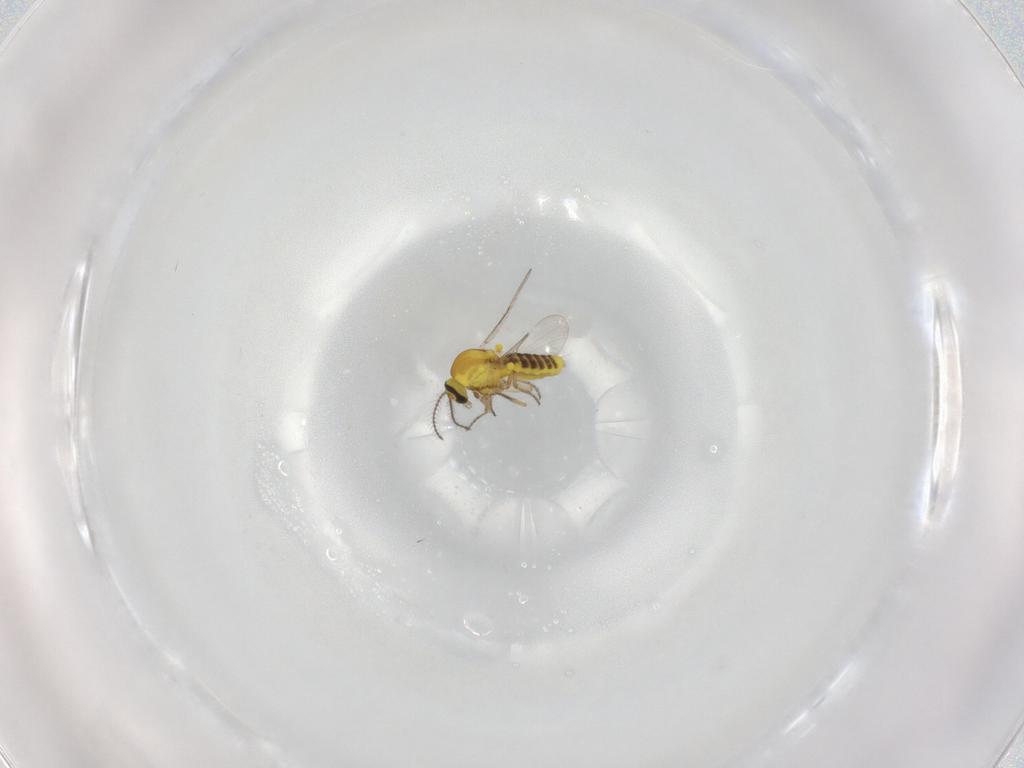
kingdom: Animalia
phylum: Arthropoda
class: Insecta
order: Diptera
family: Ceratopogonidae
